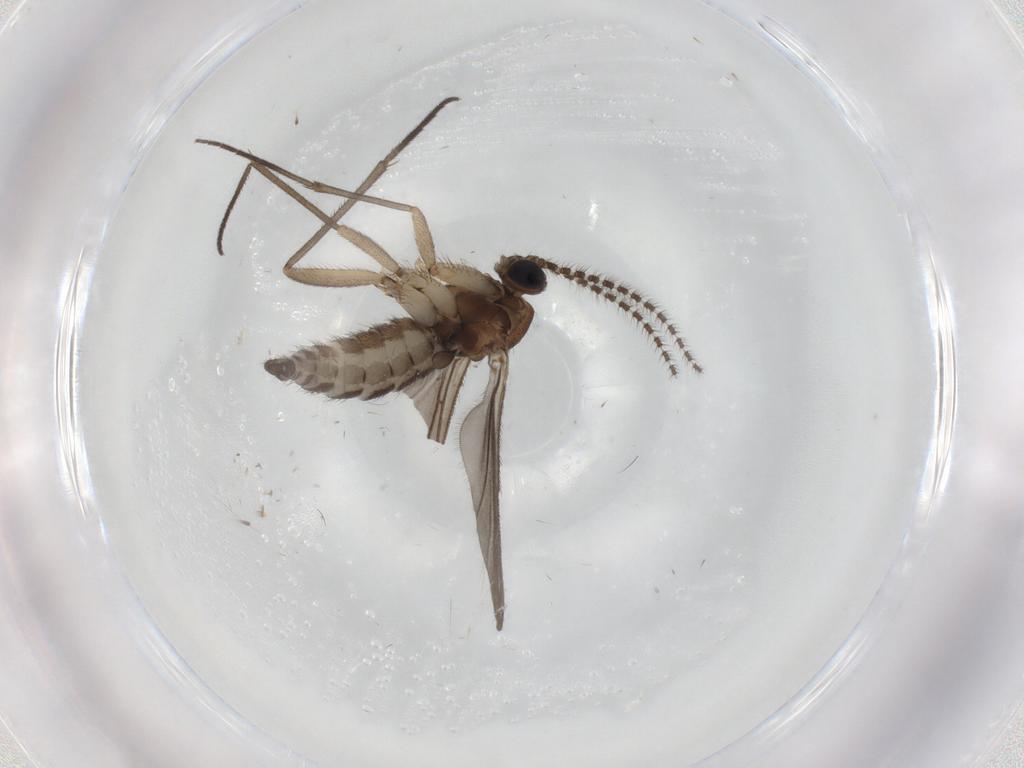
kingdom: Animalia
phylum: Arthropoda
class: Insecta
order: Diptera
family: Sciaridae
